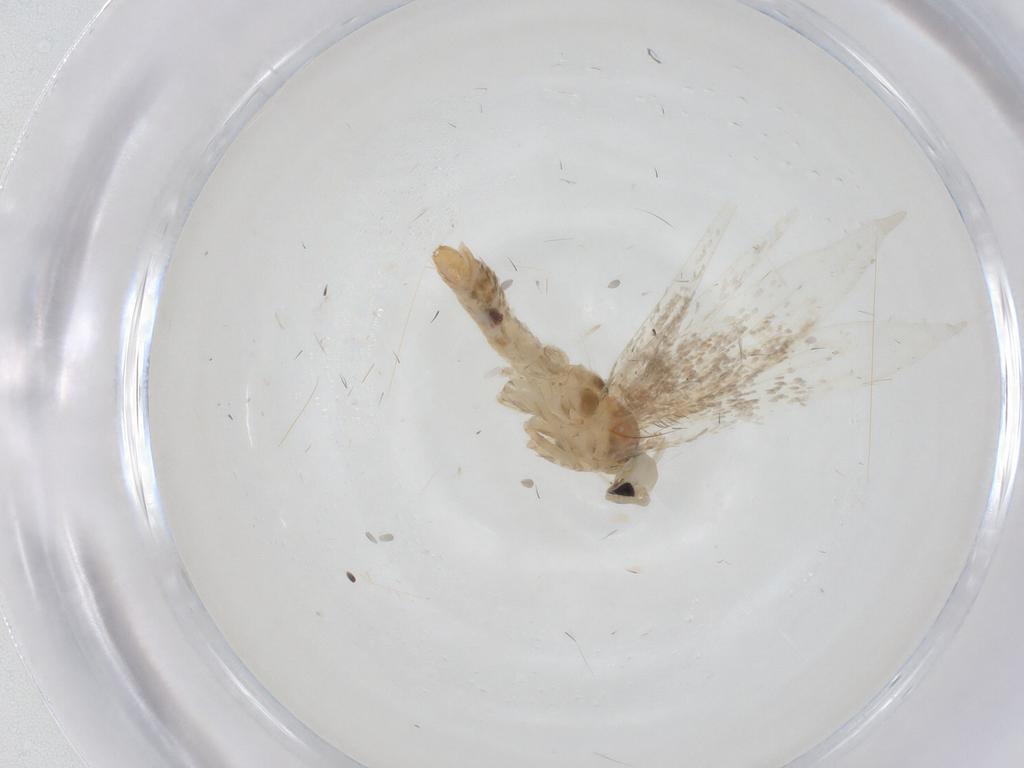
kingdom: Animalia
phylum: Arthropoda
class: Insecta
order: Lepidoptera
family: Gracillariidae
